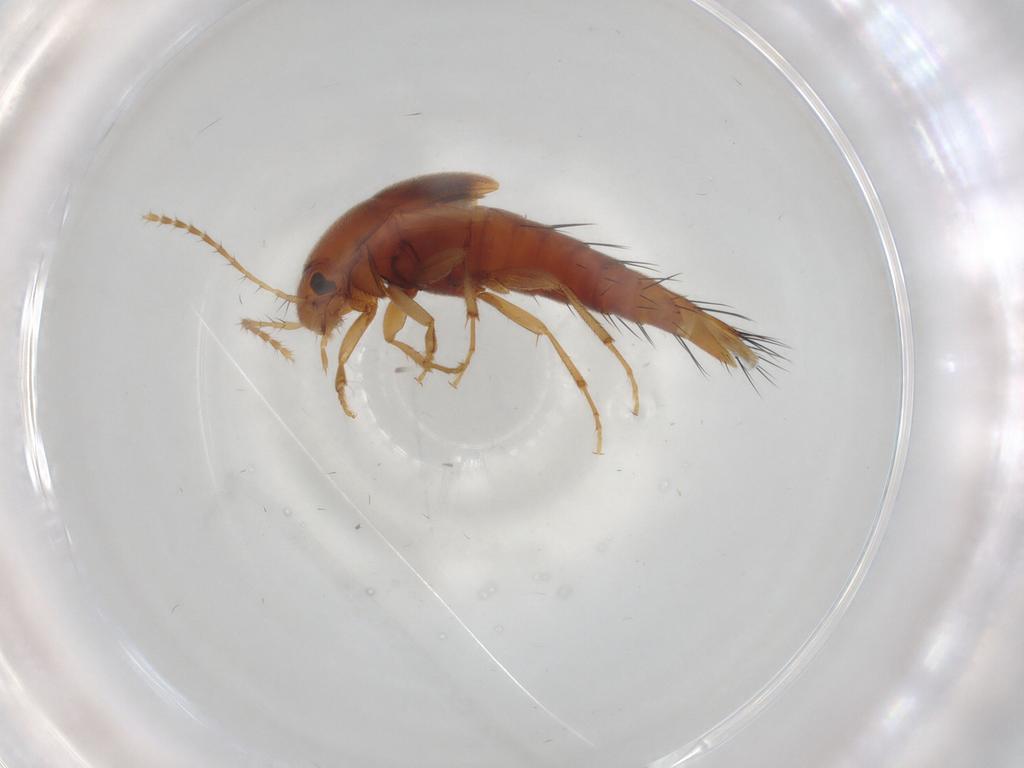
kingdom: Animalia
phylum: Arthropoda
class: Insecta
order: Coleoptera
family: Staphylinidae
